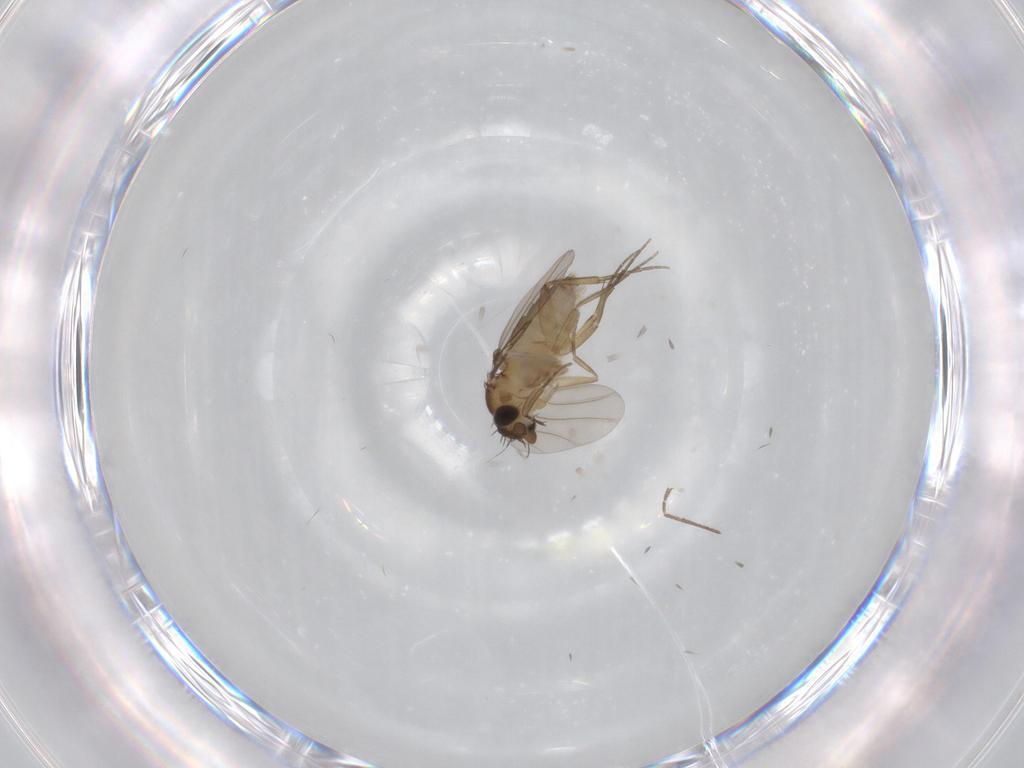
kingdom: Animalia
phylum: Arthropoda
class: Insecta
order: Diptera
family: Phoridae
